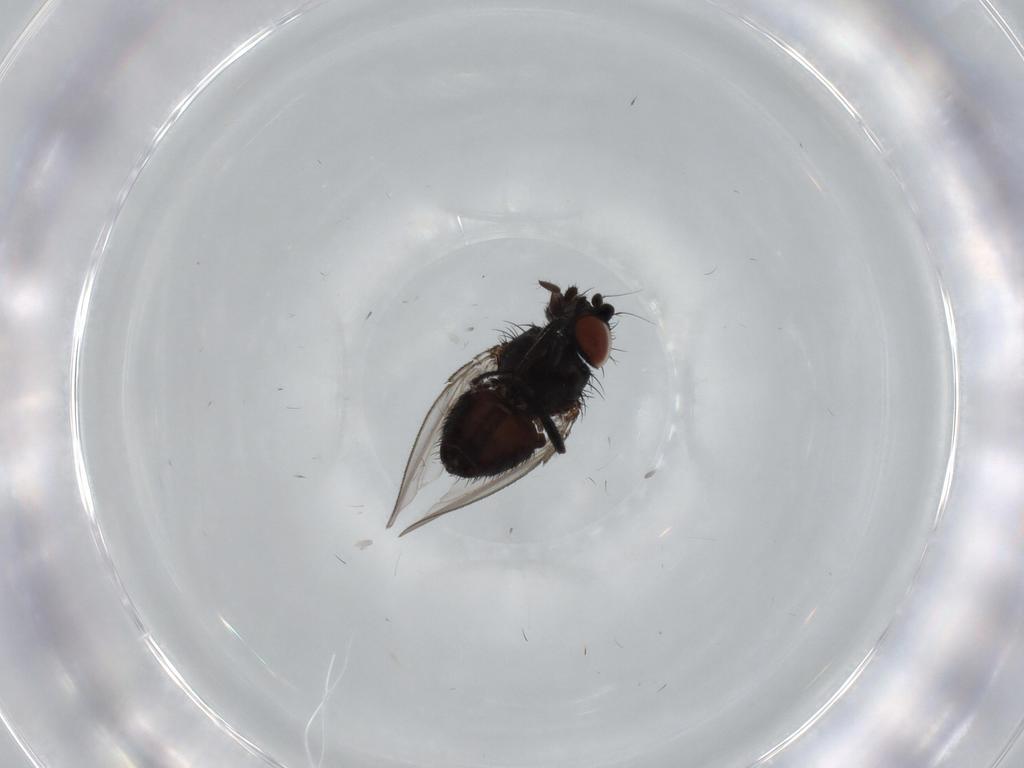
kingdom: Animalia
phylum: Arthropoda
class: Insecta
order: Diptera
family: Milichiidae
